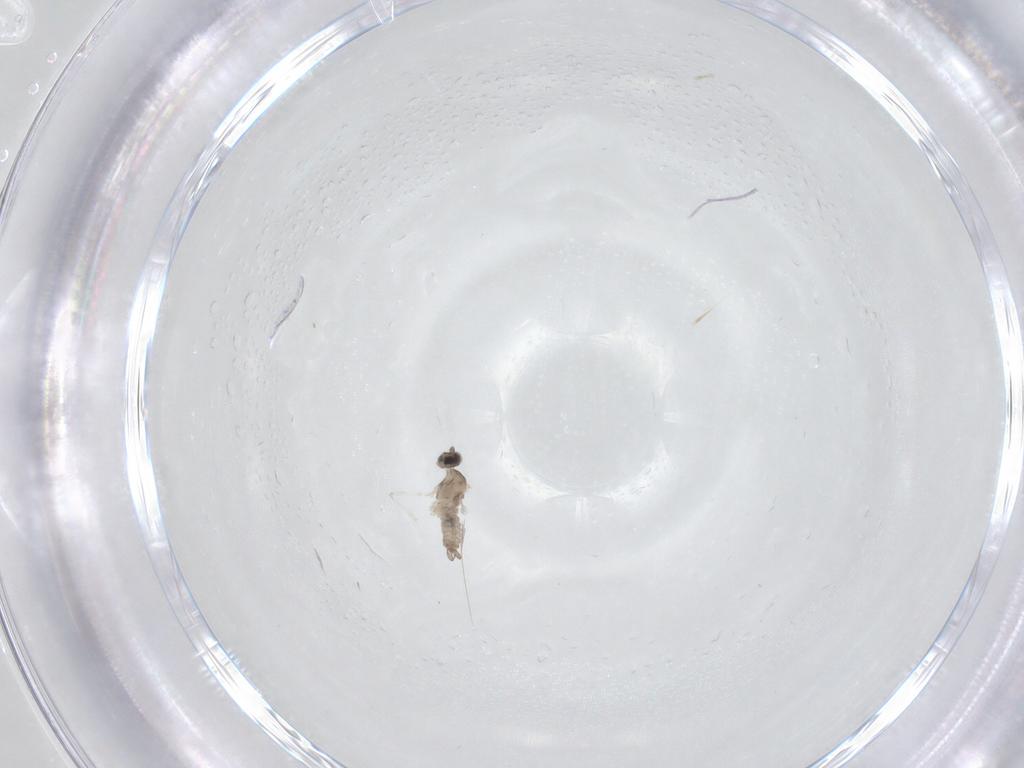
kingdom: Animalia
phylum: Arthropoda
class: Insecta
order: Diptera
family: Cecidomyiidae
